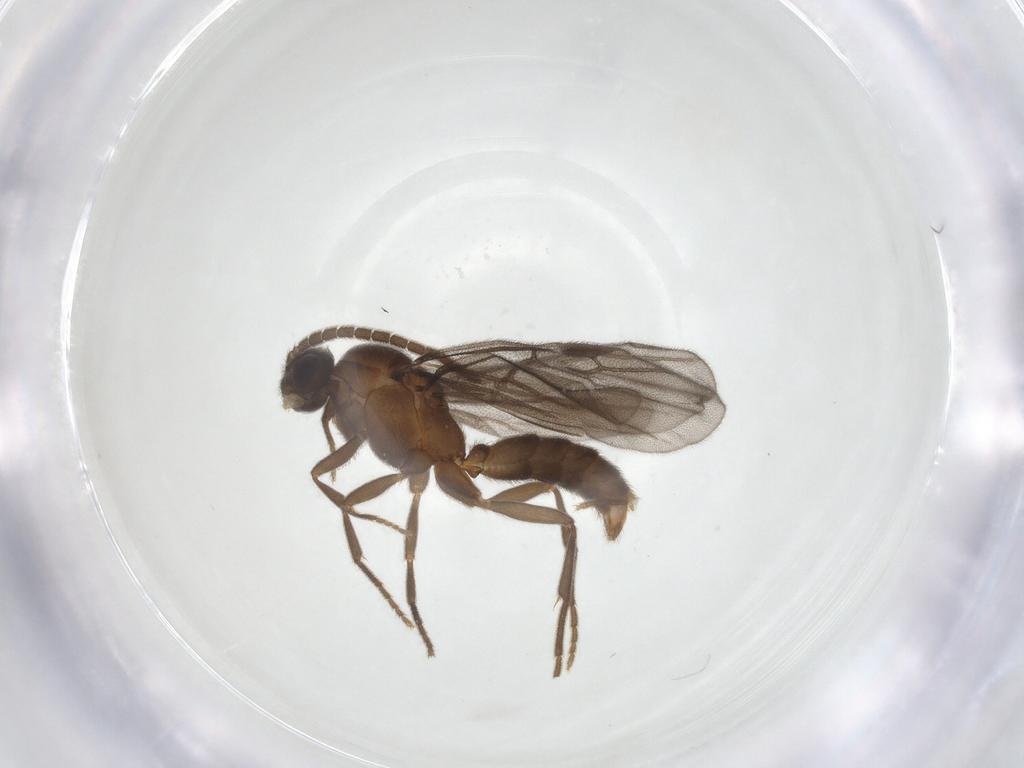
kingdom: Animalia
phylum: Arthropoda
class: Insecta
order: Hymenoptera
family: Formicidae
